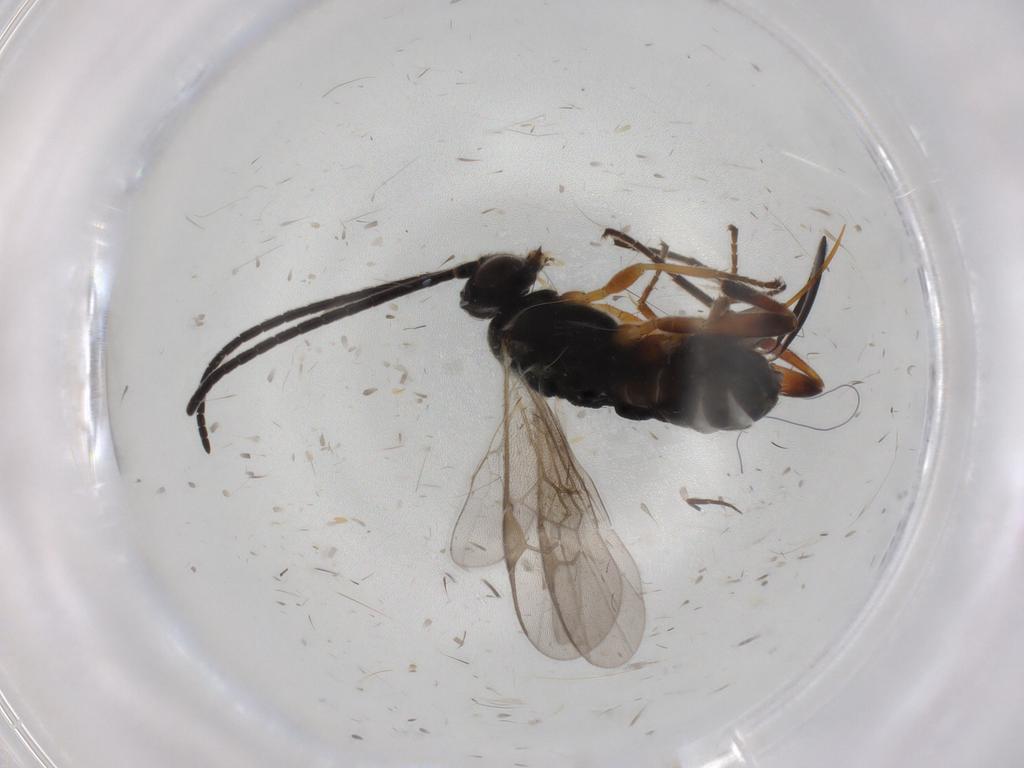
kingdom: Animalia
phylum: Arthropoda
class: Insecta
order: Hymenoptera
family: Braconidae
